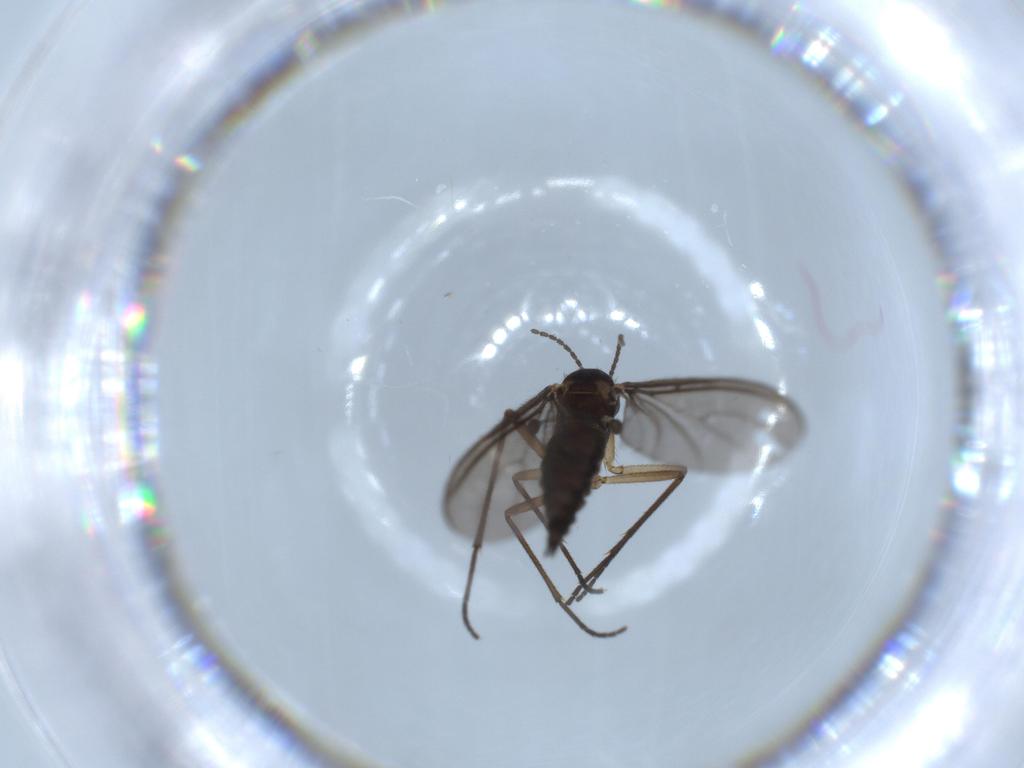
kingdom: Animalia
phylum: Arthropoda
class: Insecta
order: Diptera
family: Sciaridae
